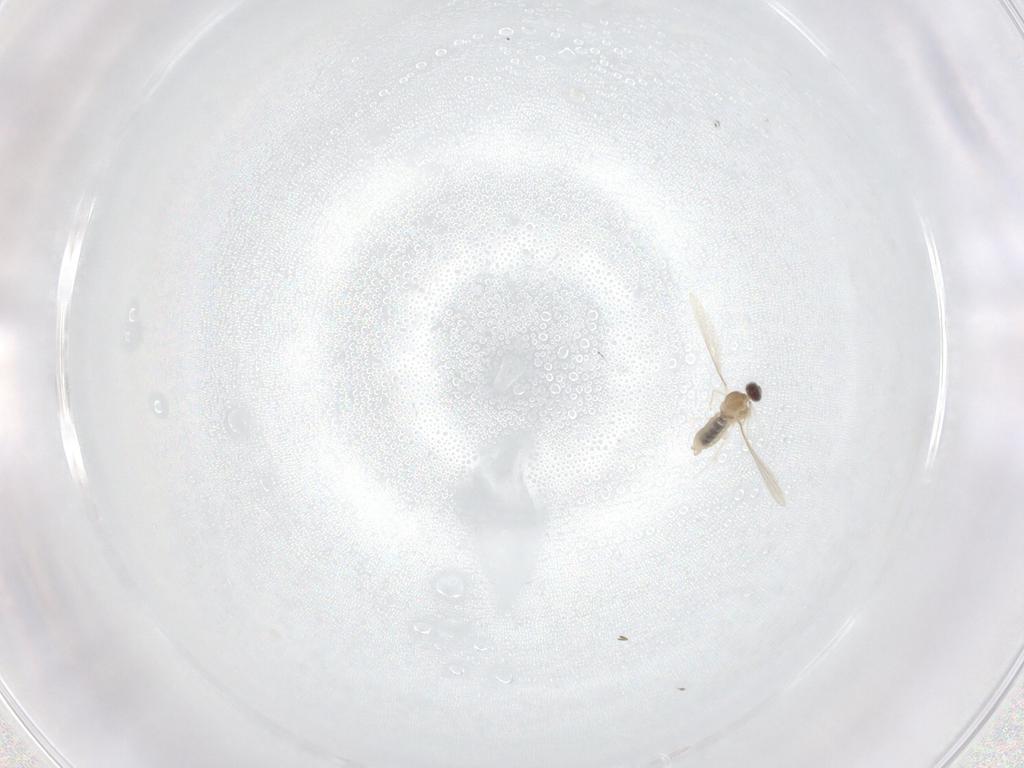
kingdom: Animalia
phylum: Arthropoda
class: Insecta
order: Diptera
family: Cecidomyiidae
